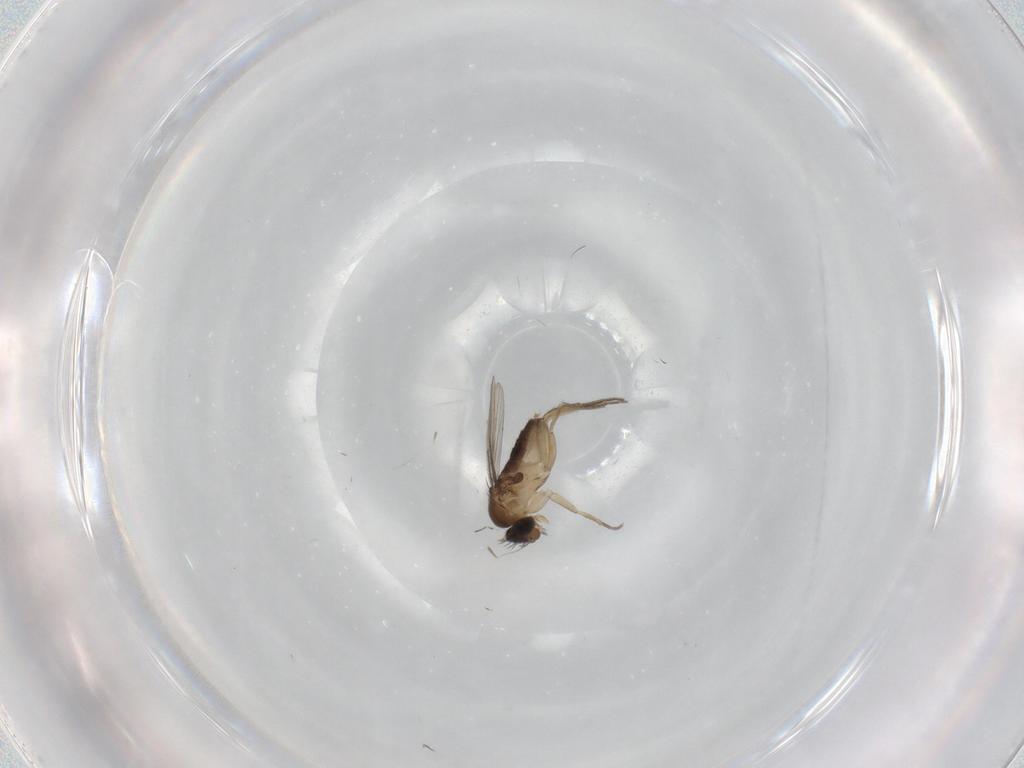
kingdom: Animalia
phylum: Arthropoda
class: Insecta
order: Diptera
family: Phoridae
